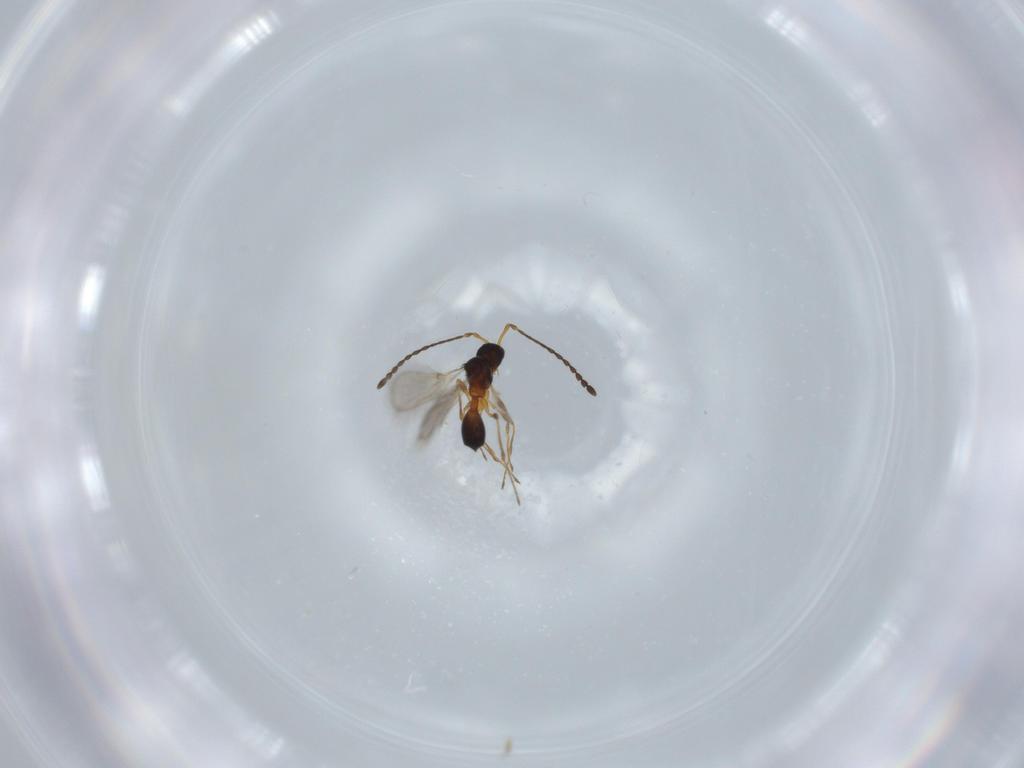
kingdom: Animalia
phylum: Arthropoda
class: Insecta
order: Hymenoptera
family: Diapriidae
